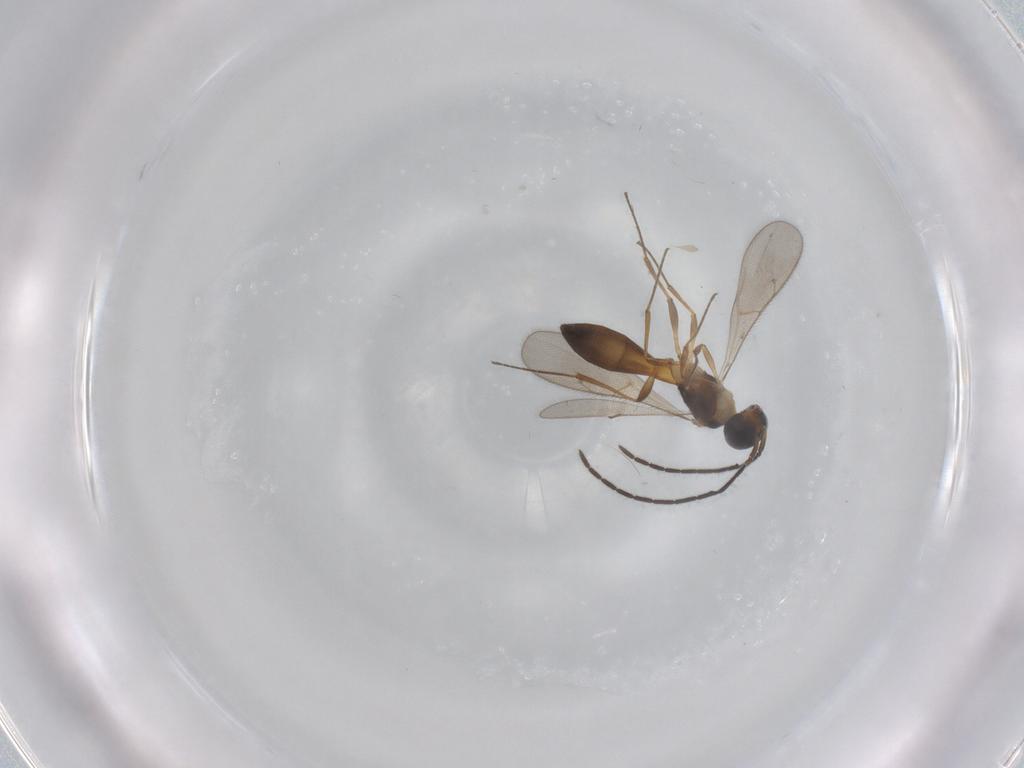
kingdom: Animalia
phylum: Arthropoda
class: Insecta
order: Hymenoptera
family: Scelionidae
